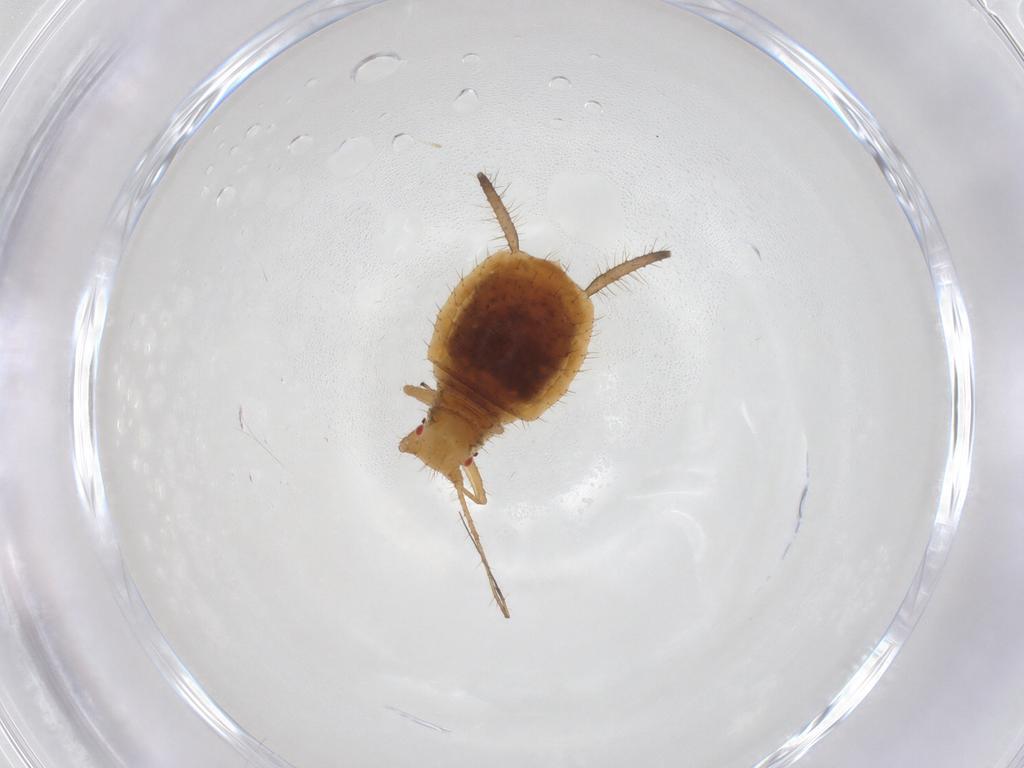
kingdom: Animalia
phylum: Arthropoda
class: Insecta
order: Hemiptera
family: Aphididae
